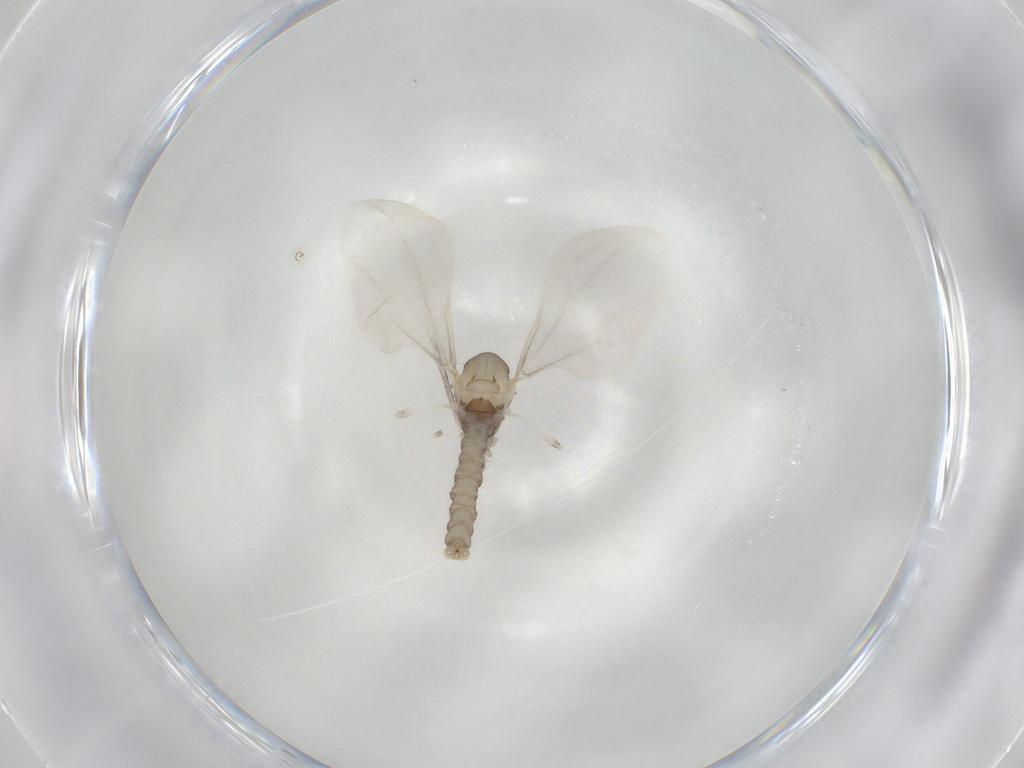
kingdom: Animalia
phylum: Arthropoda
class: Insecta
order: Diptera
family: Cecidomyiidae
